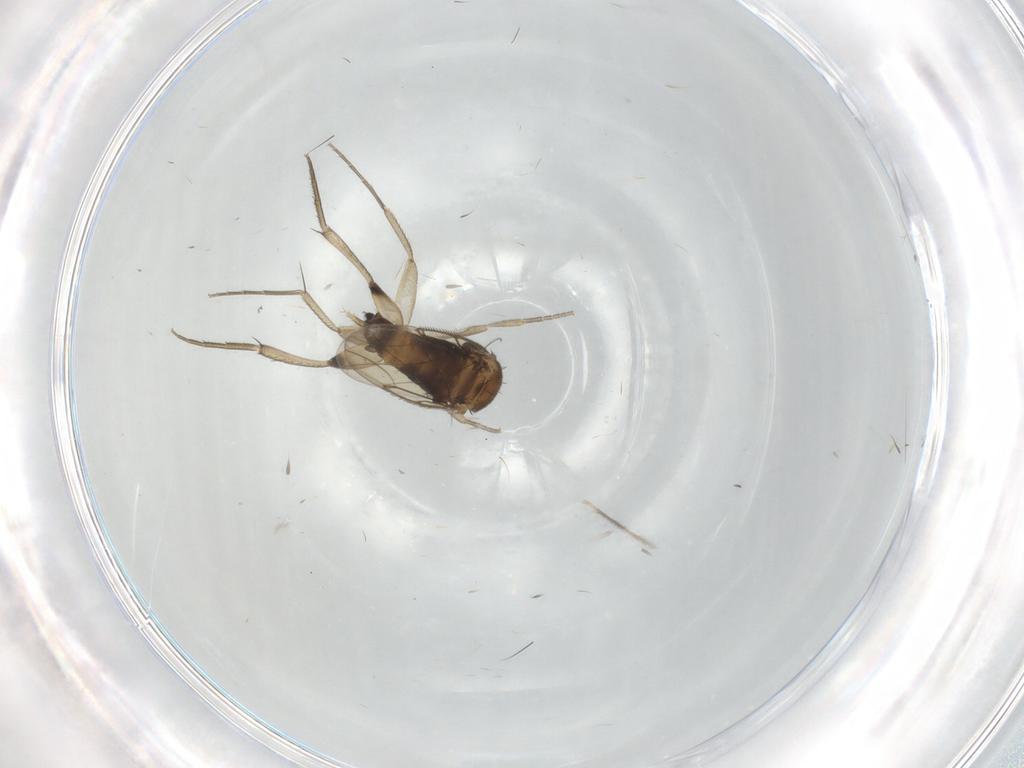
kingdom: Animalia
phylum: Arthropoda
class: Insecta
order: Diptera
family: Phoridae
